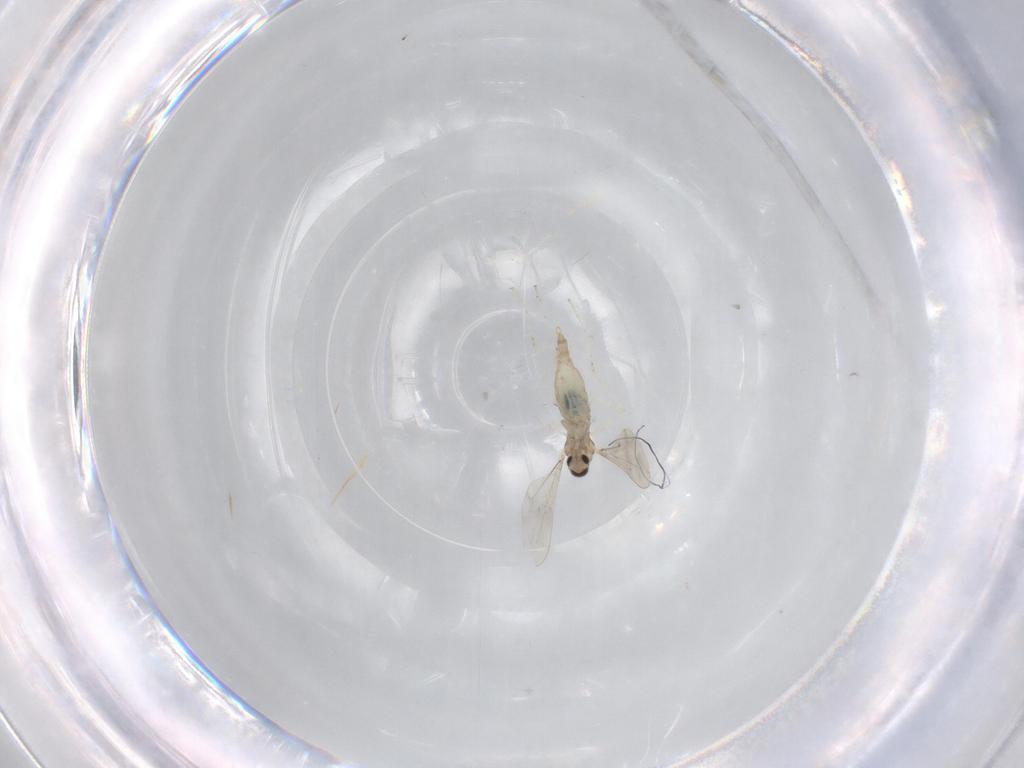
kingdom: Animalia
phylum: Arthropoda
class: Insecta
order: Diptera
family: Cecidomyiidae
